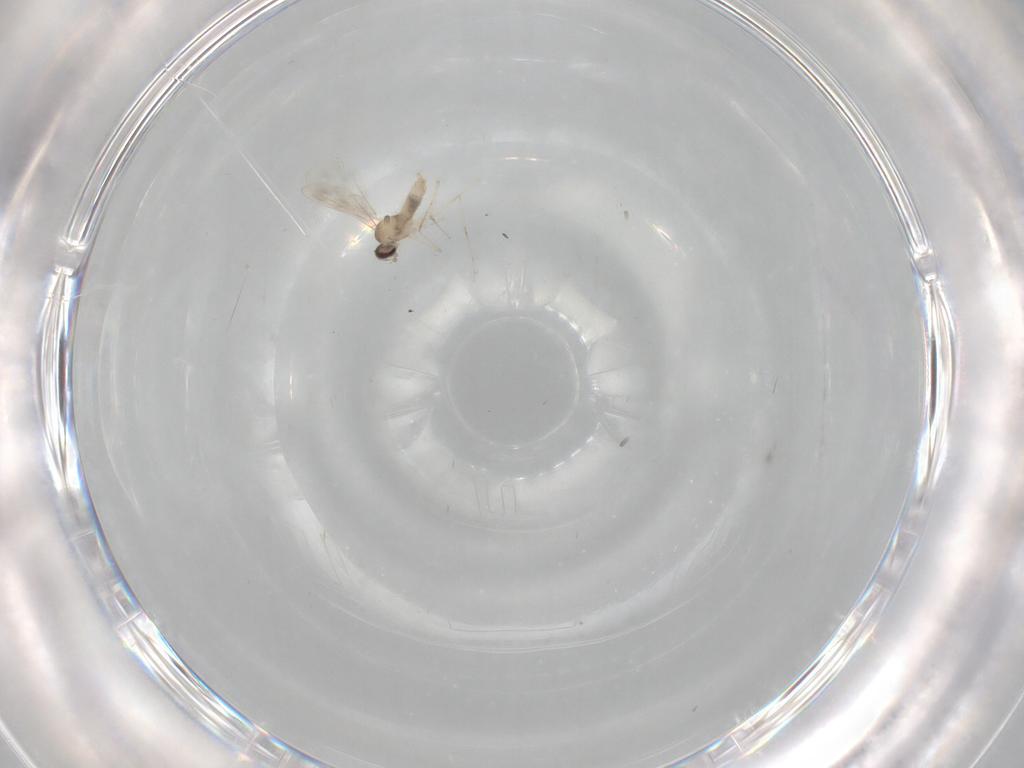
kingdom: Animalia
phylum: Arthropoda
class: Insecta
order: Diptera
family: Cecidomyiidae
